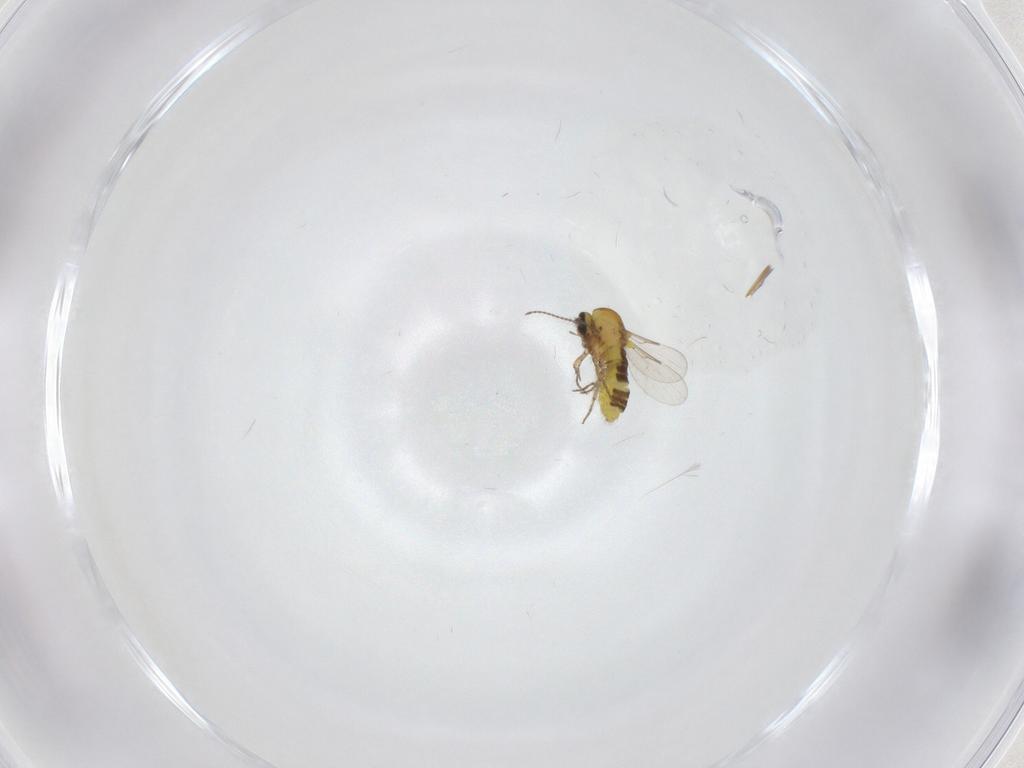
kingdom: Animalia
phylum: Arthropoda
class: Insecta
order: Diptera
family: Ceratopogonidae
